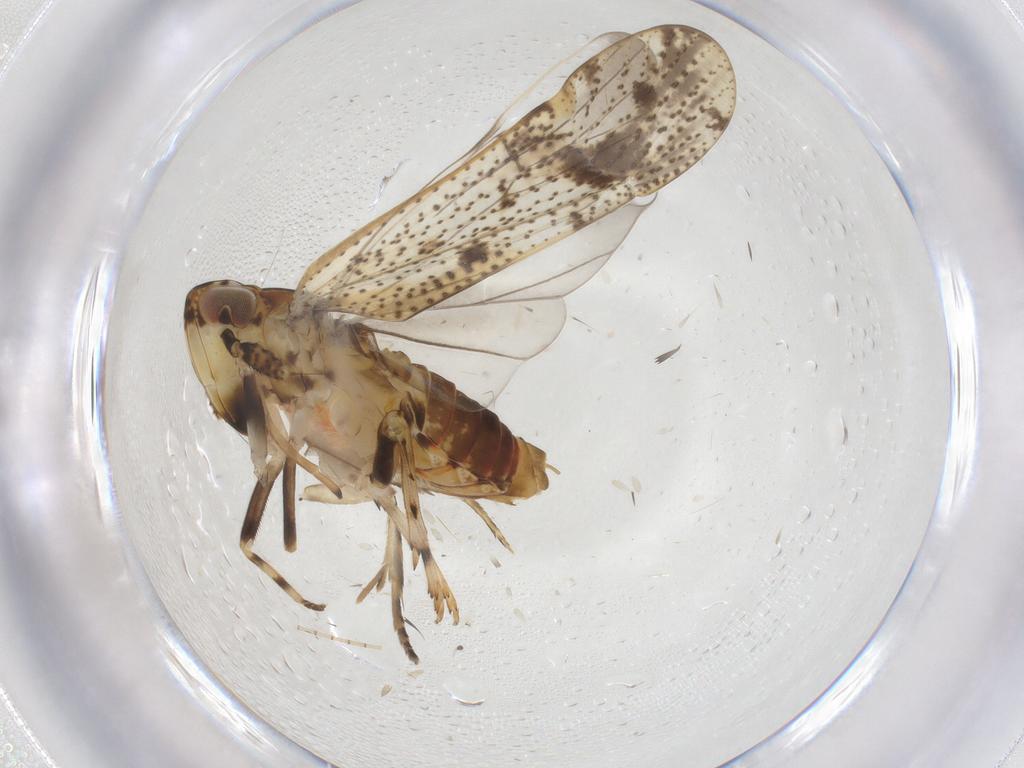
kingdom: Animalia
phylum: Arthropoda
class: Insecta
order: Hemiptera
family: Delphacidae
